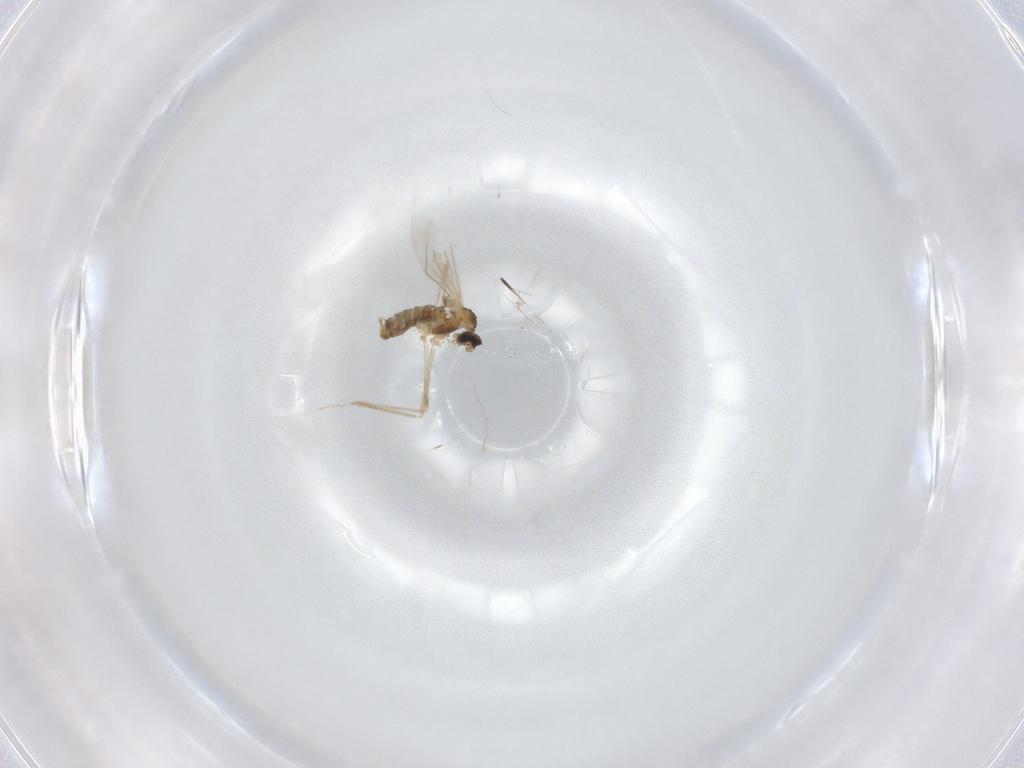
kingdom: Animalia
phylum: Arthropoda
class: Insecta
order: Diptera
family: Cecidomyiidae
